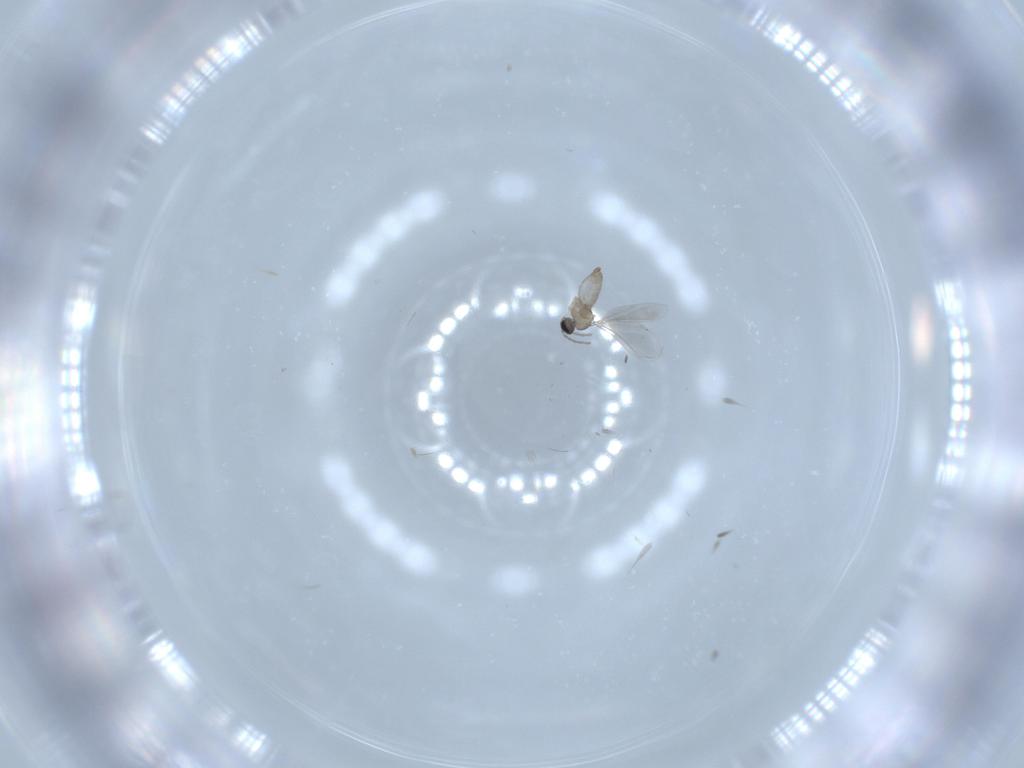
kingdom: Animalia
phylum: Arthropoda
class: Insecta
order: Diptera
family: Cecidomyiidae
